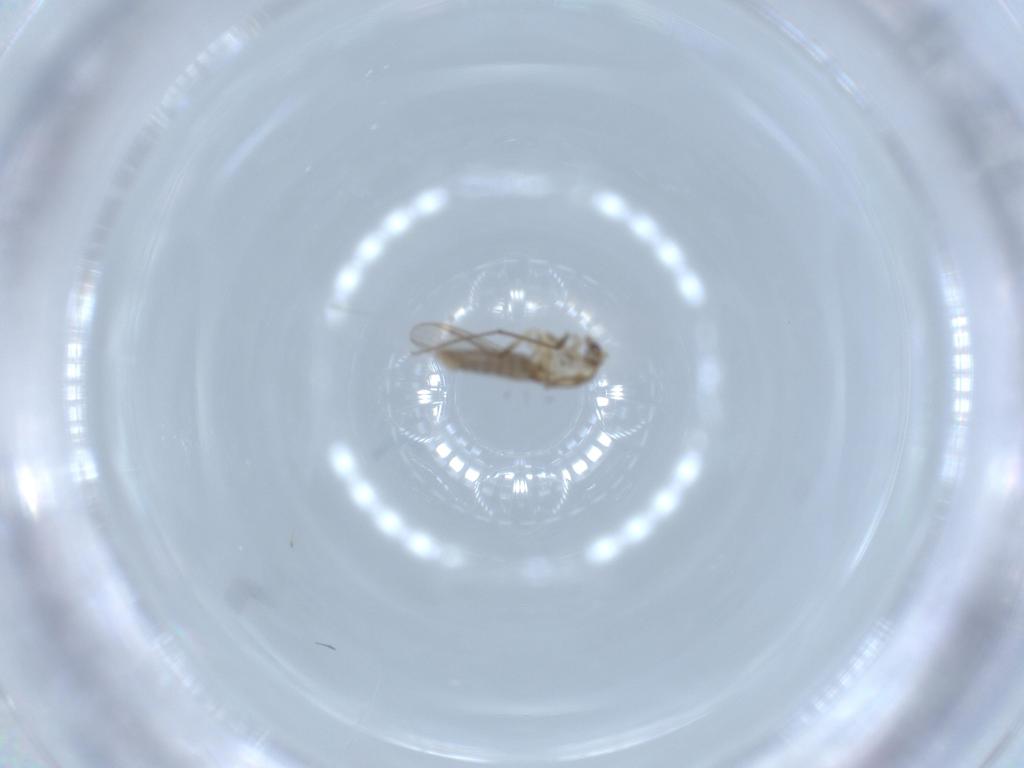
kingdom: Animalia
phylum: Arthropoda
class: Insecta
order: Diptera
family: Chironomidae
